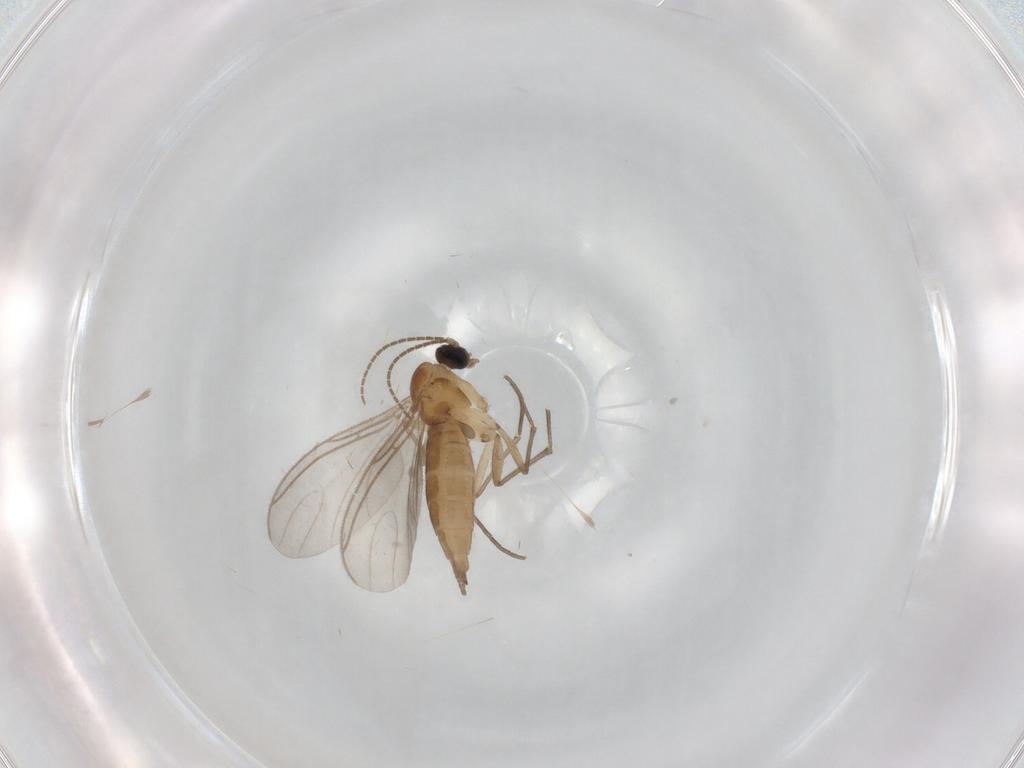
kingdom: Animalia
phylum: Arthropoda
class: Insecta
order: Diptera
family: Sciaridae
